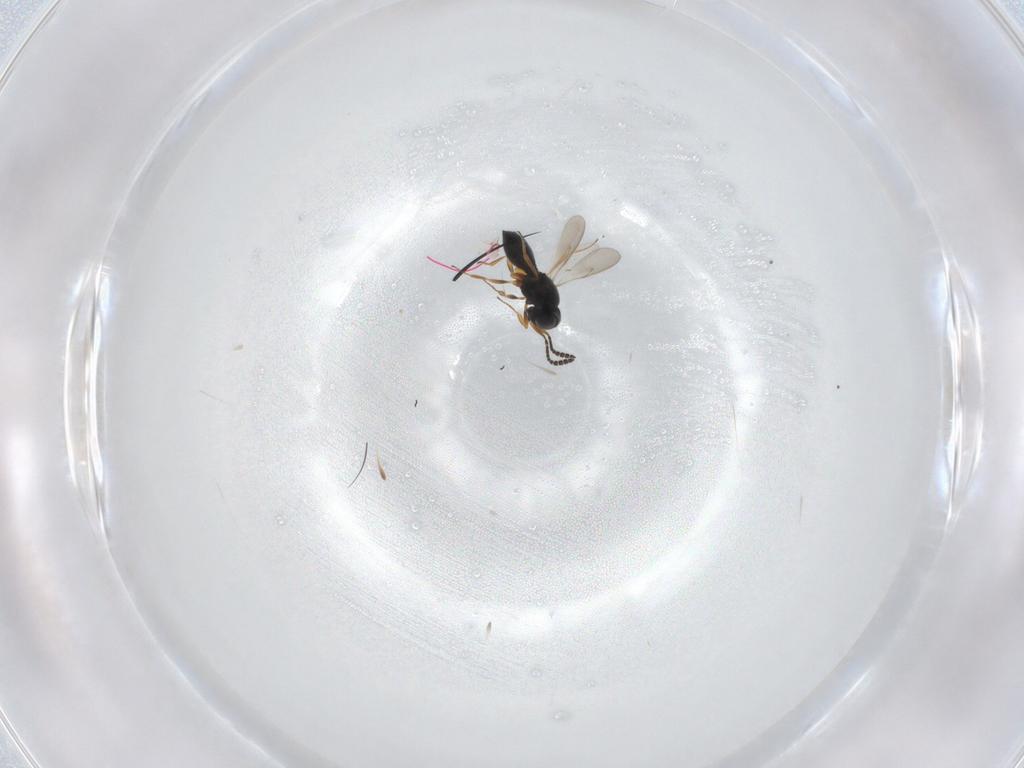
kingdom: Animalia
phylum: Arthropoda
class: Insecta
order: Hymenoptera
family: Scelionidae
